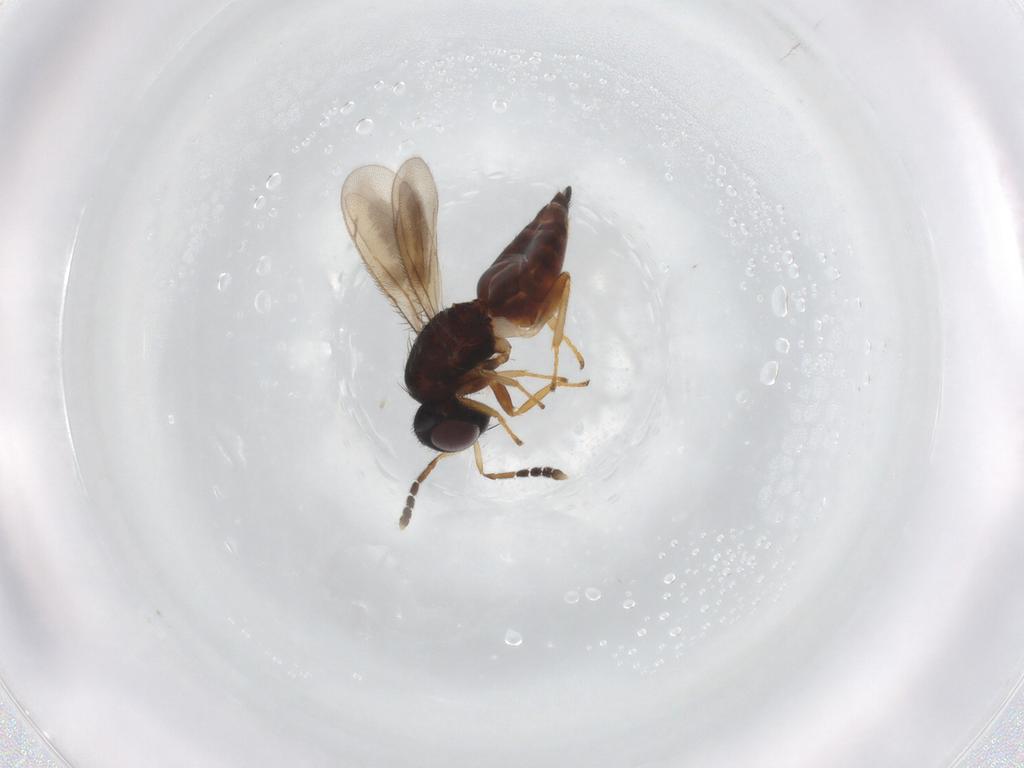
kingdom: Animalia
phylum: Arthropoda
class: Insecta
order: Hymenoptera
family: Eulophidae
